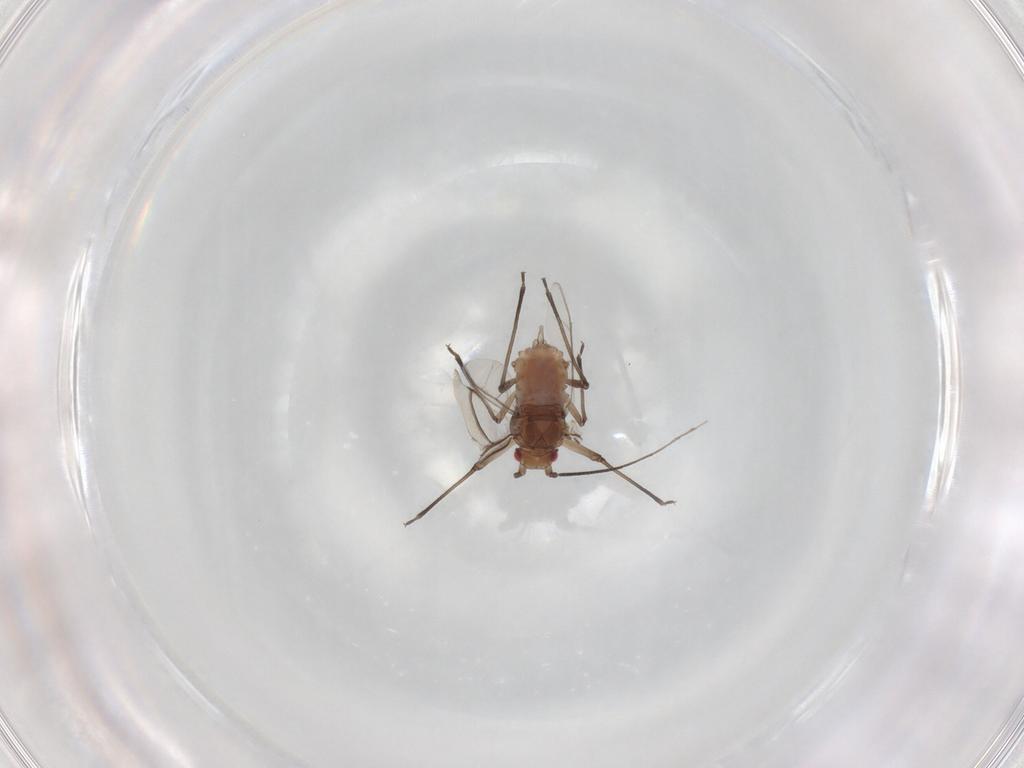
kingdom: Animalia
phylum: Arthropoda
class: Insecta
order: Hemiptera
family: Aphididae
